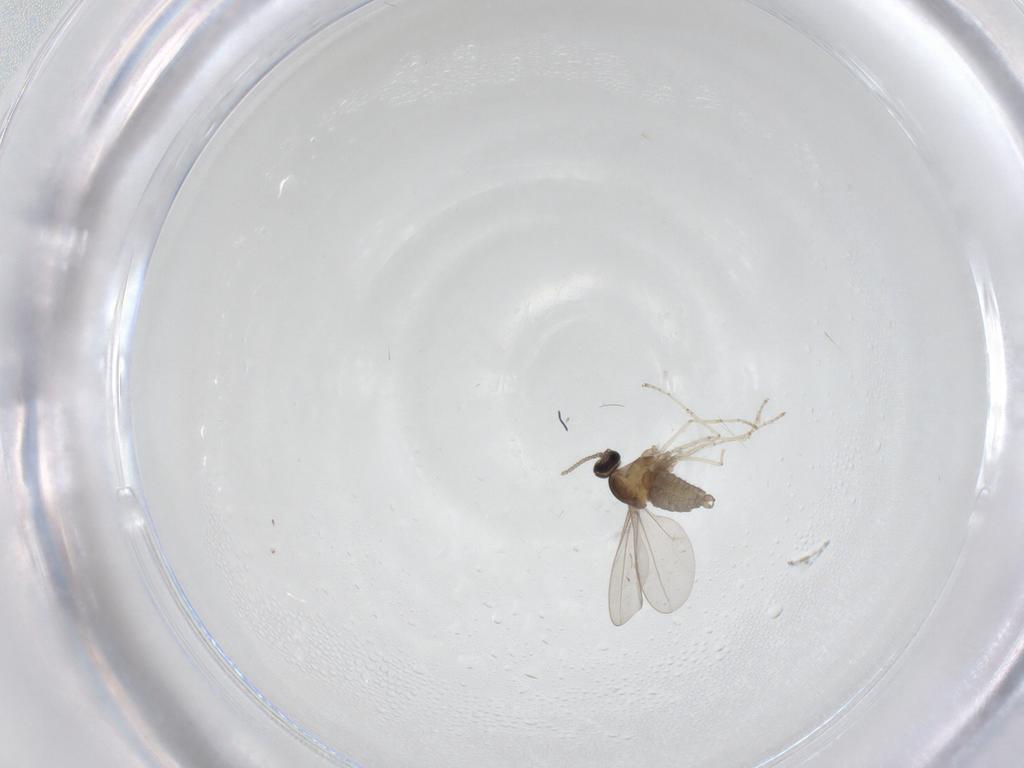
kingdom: Animalia
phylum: Arthropoda
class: Insecta
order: Diptera
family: Cecidomyiidae
